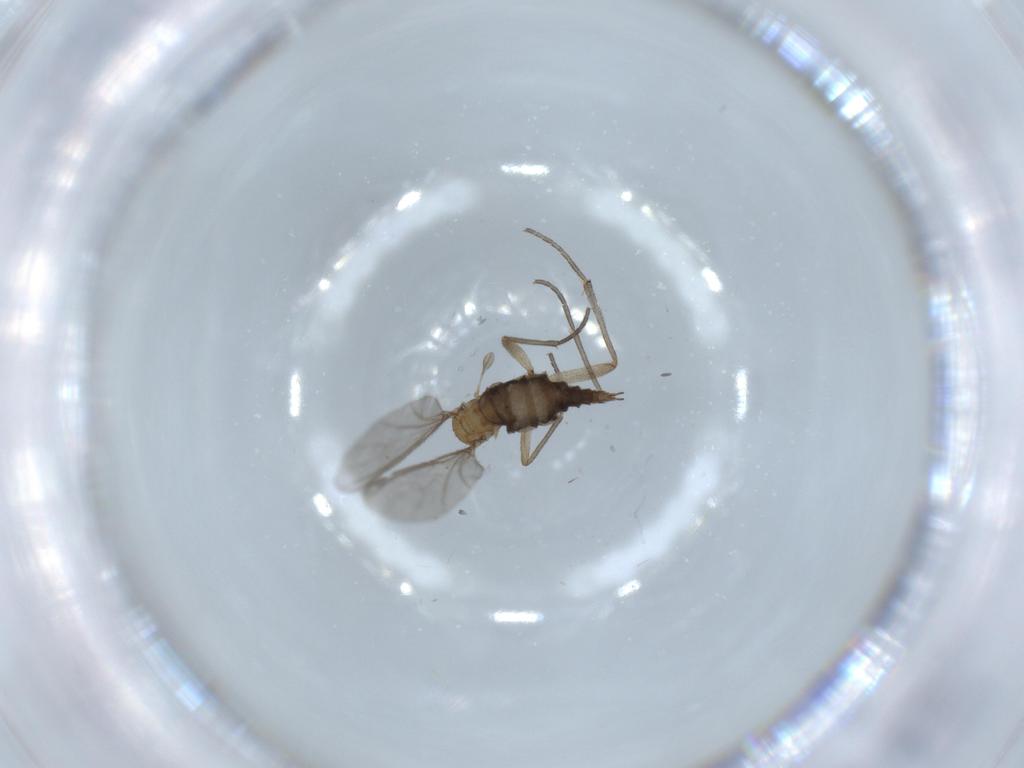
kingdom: Animalia
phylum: Arthropoda
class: Insecta
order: Diptera
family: Sciaridae
